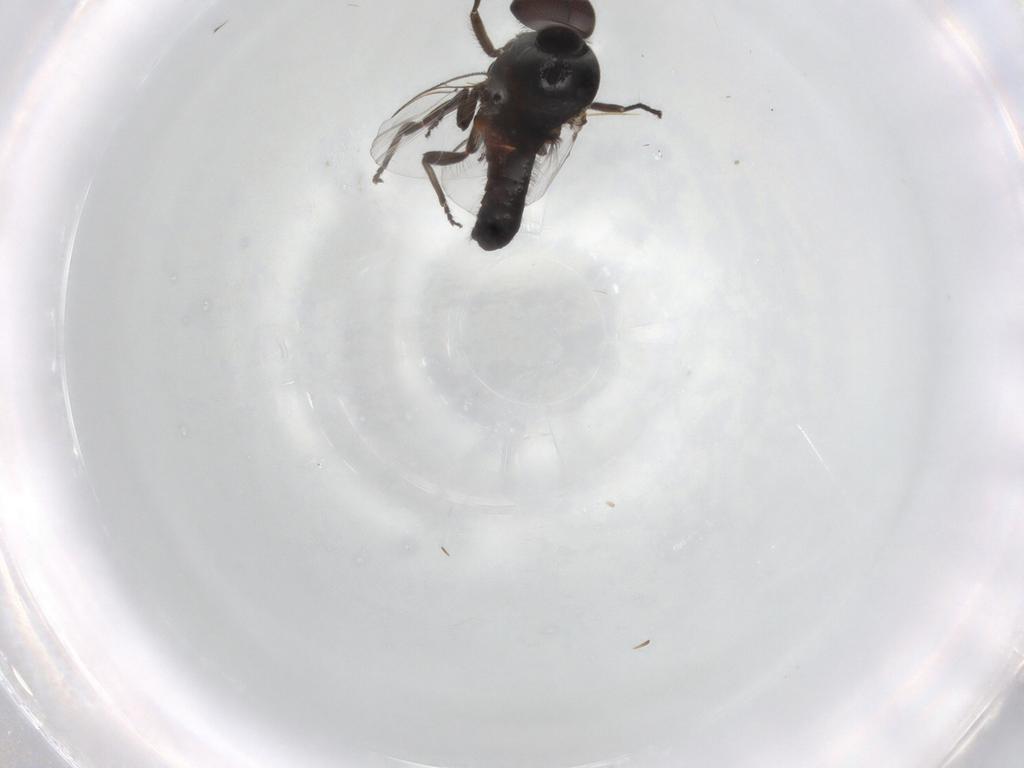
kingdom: Animalia
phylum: Arthropoda
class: Insecta
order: Diptera
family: Simuliidae
